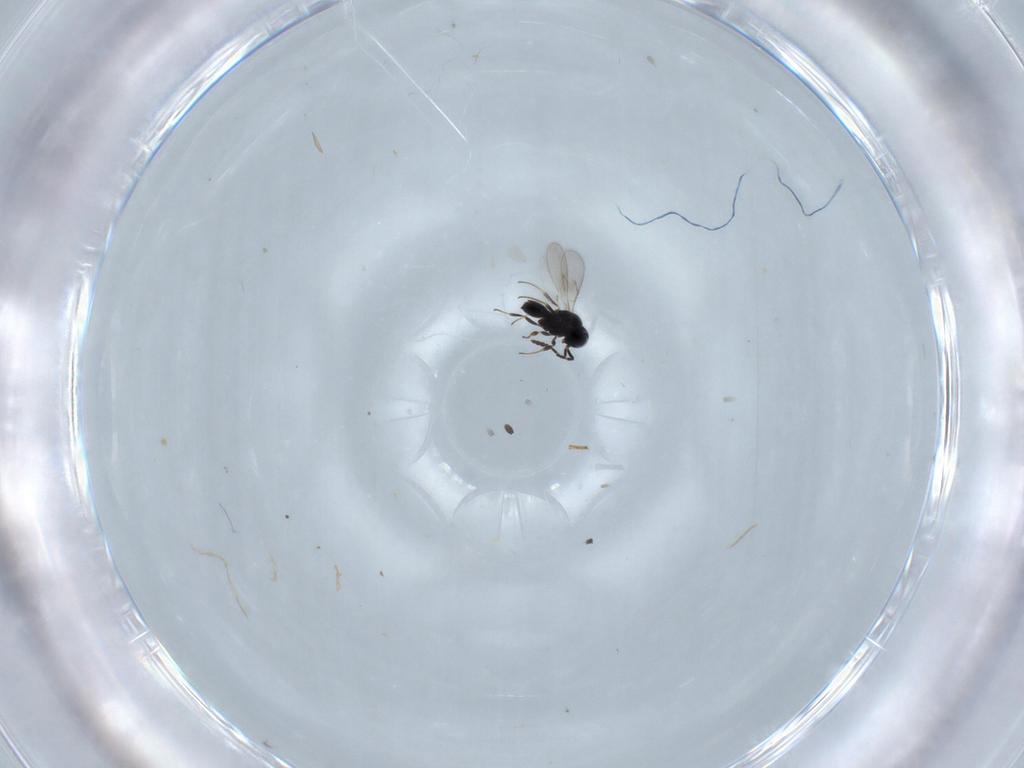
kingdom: Animalia
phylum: Arthropoda
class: Insecta
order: Hymenoptera
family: Scelionidae
